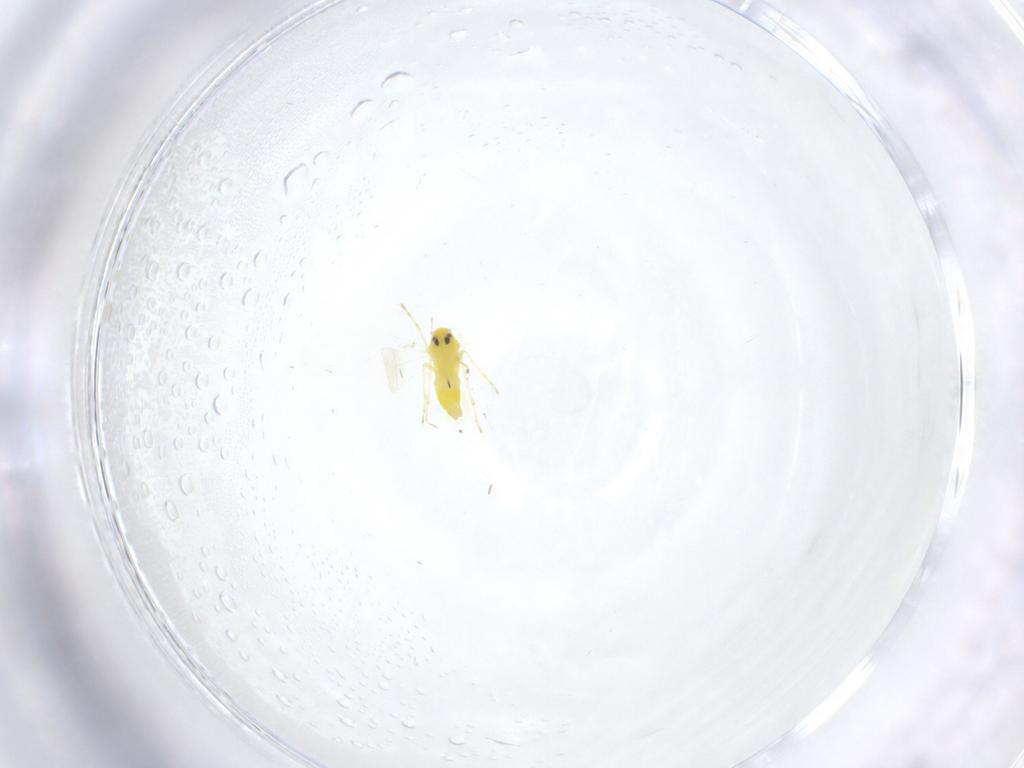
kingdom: Animalia
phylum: Arthropoda
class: Insecta
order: Hemiptera
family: Aleyrodidae
